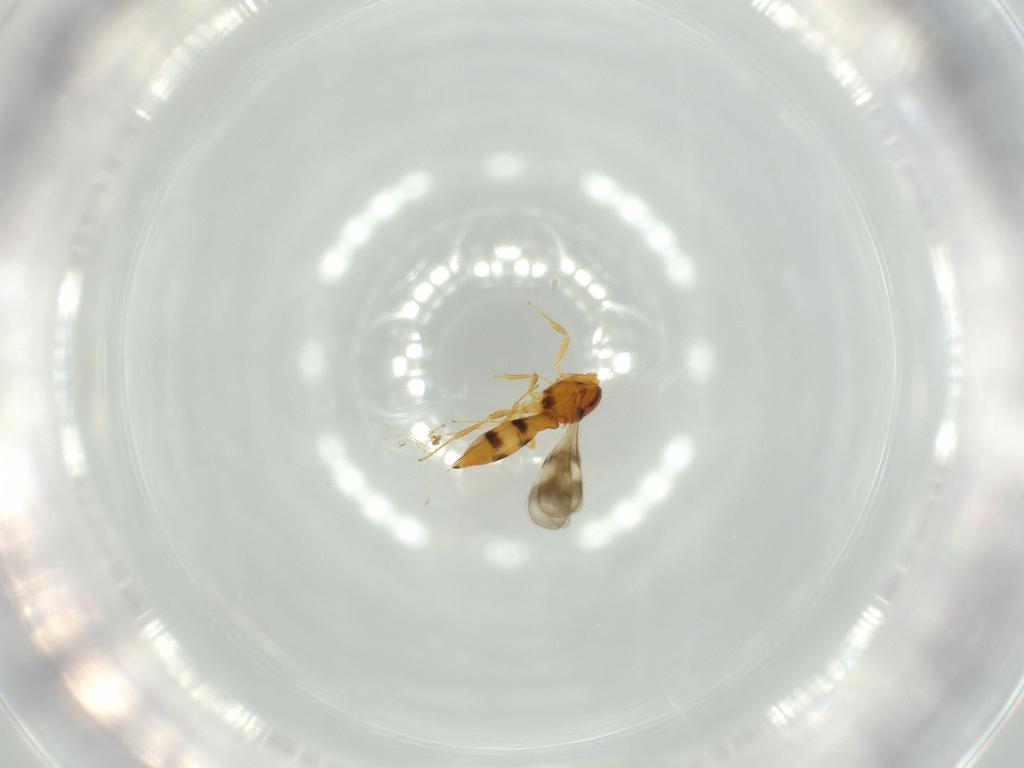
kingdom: Animalia
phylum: Arthropoda
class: Insecta
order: Hymenoptera
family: Scelionidae
